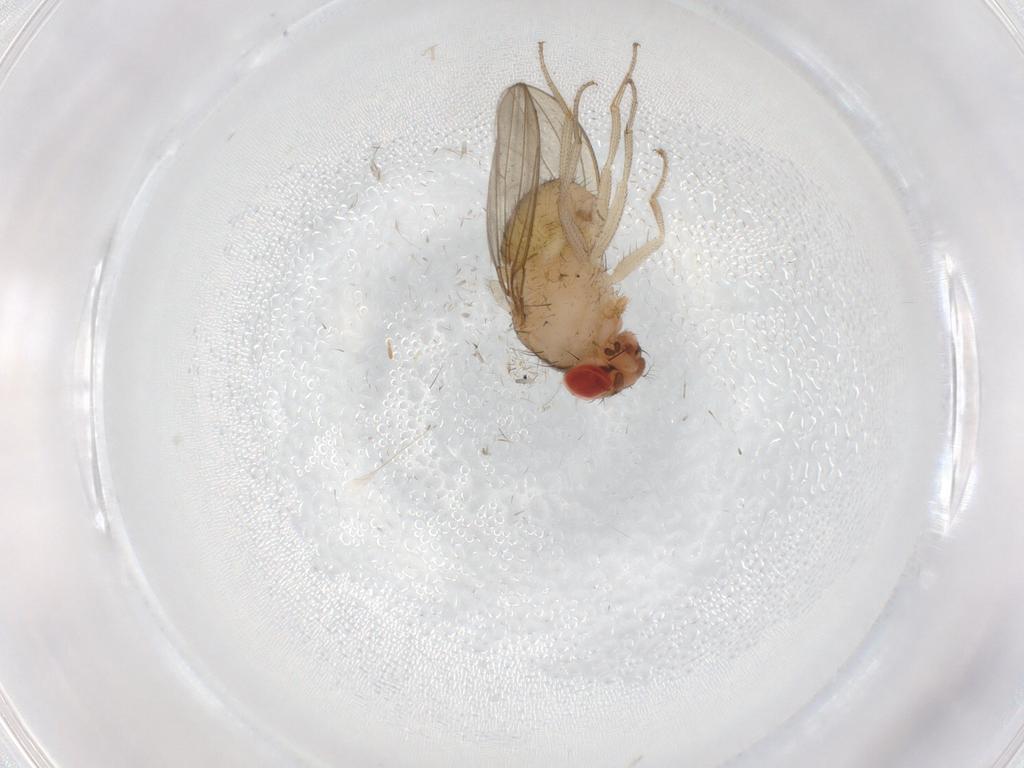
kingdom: Animalia
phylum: Arthropoda
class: Insecta
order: Diptera
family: Drosophilidae
